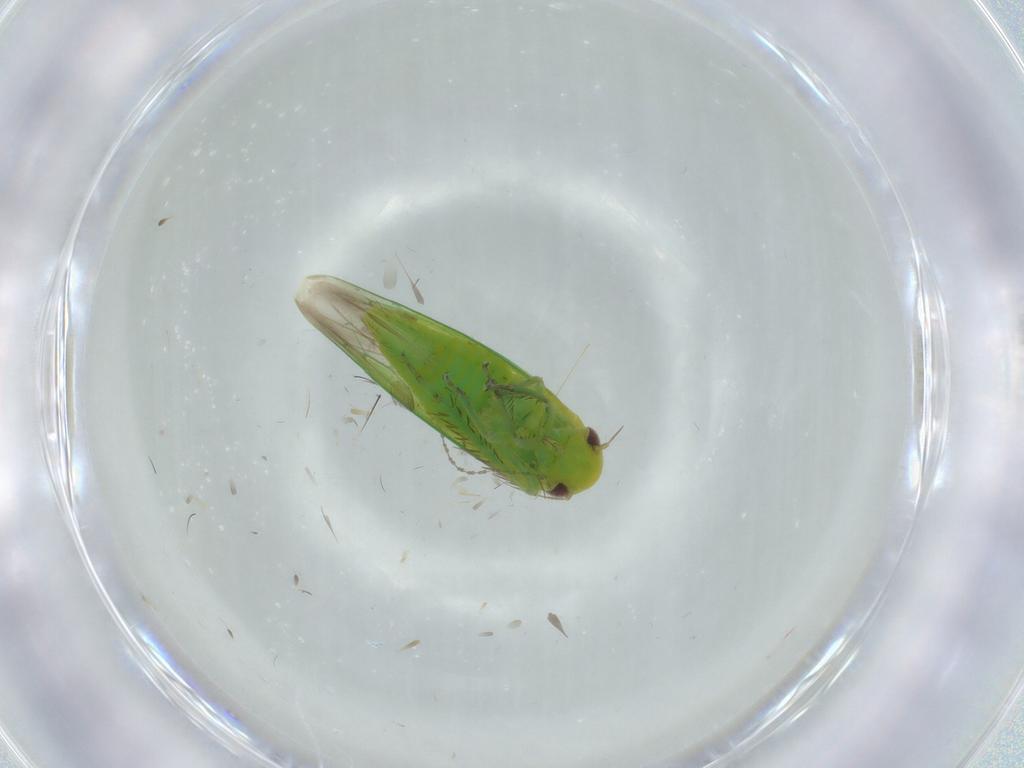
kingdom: Animalia
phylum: Arthropoda
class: Insecta
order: Hemiptera
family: Cicadellidae
